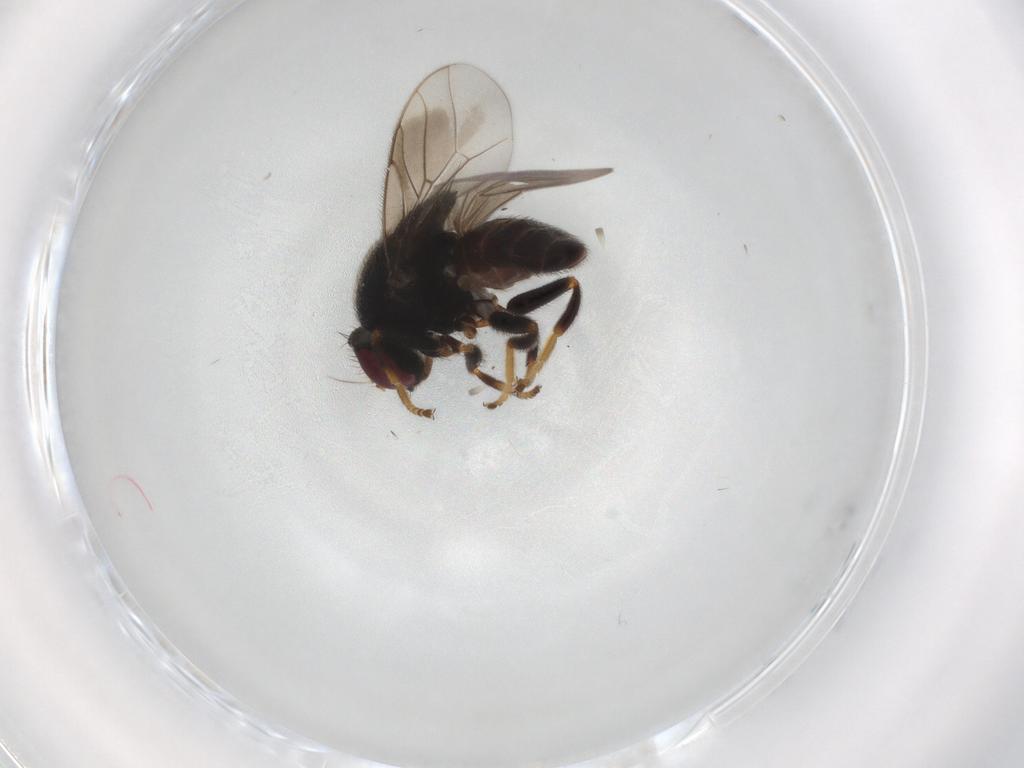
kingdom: Animalia
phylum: Arthropoda
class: Insecta
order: Diptera
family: Chloropidae
